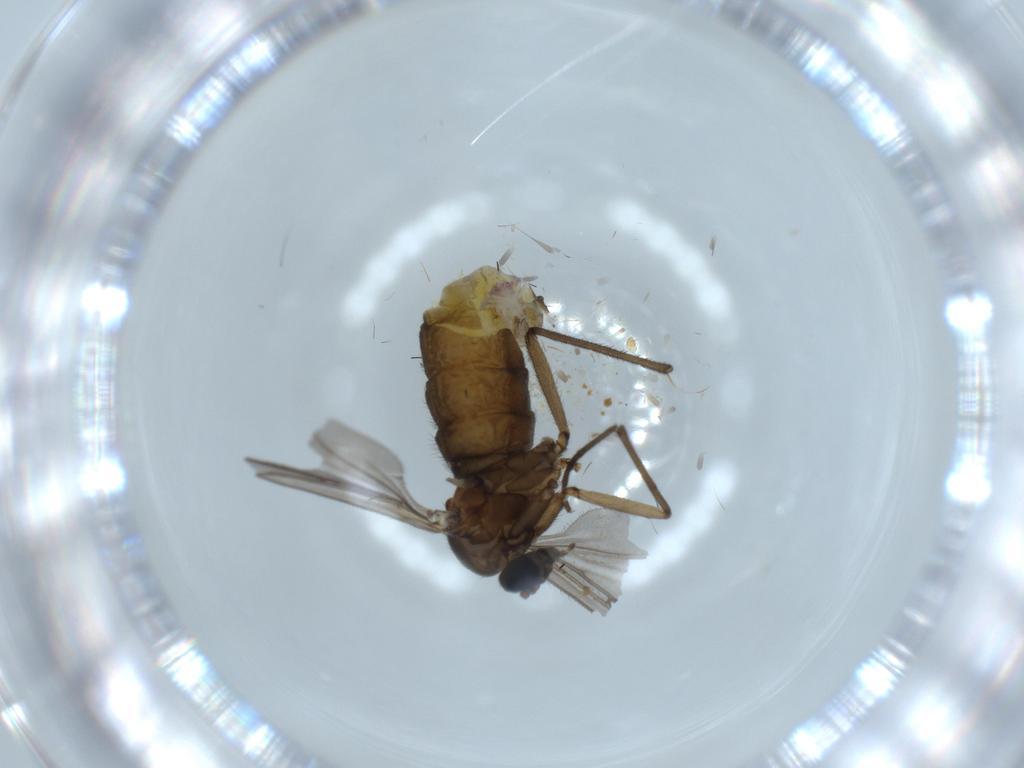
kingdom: Animalia
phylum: Arthropoda
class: Insecta
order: Diptera
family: Sciaridae
